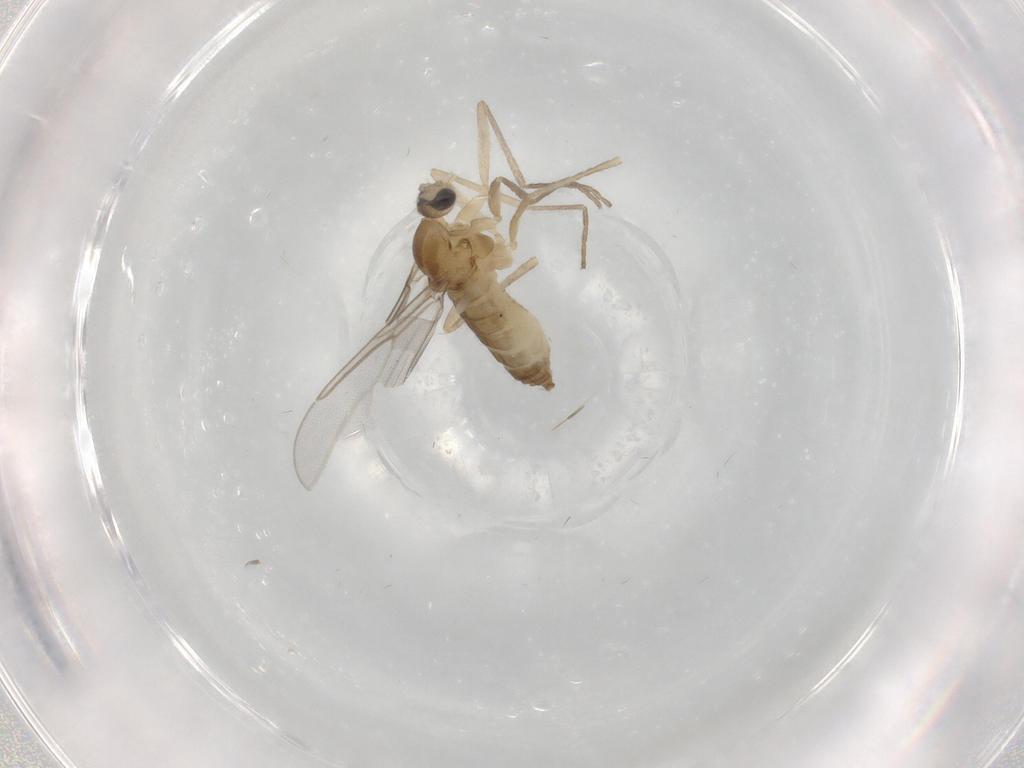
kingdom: Animalia
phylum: Arthropoda
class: Insecta
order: Diptera
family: Cecidomyiidae
